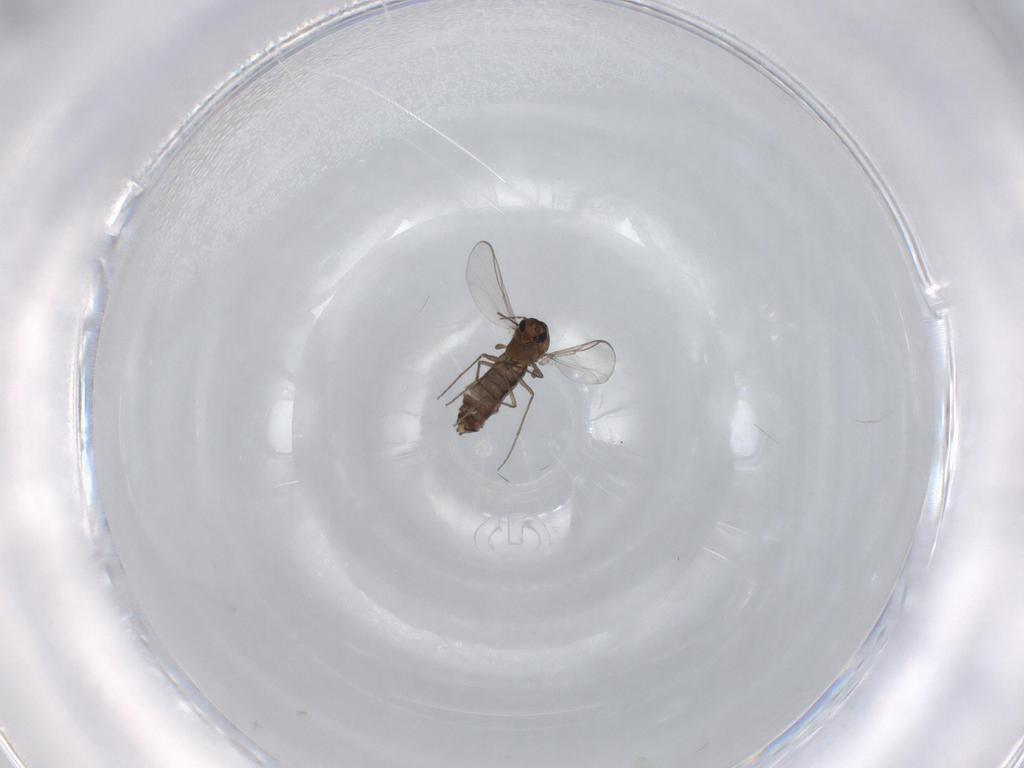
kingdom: Animalia
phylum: Arthropoda
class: Insecta
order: Diptera
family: Chironomidae
